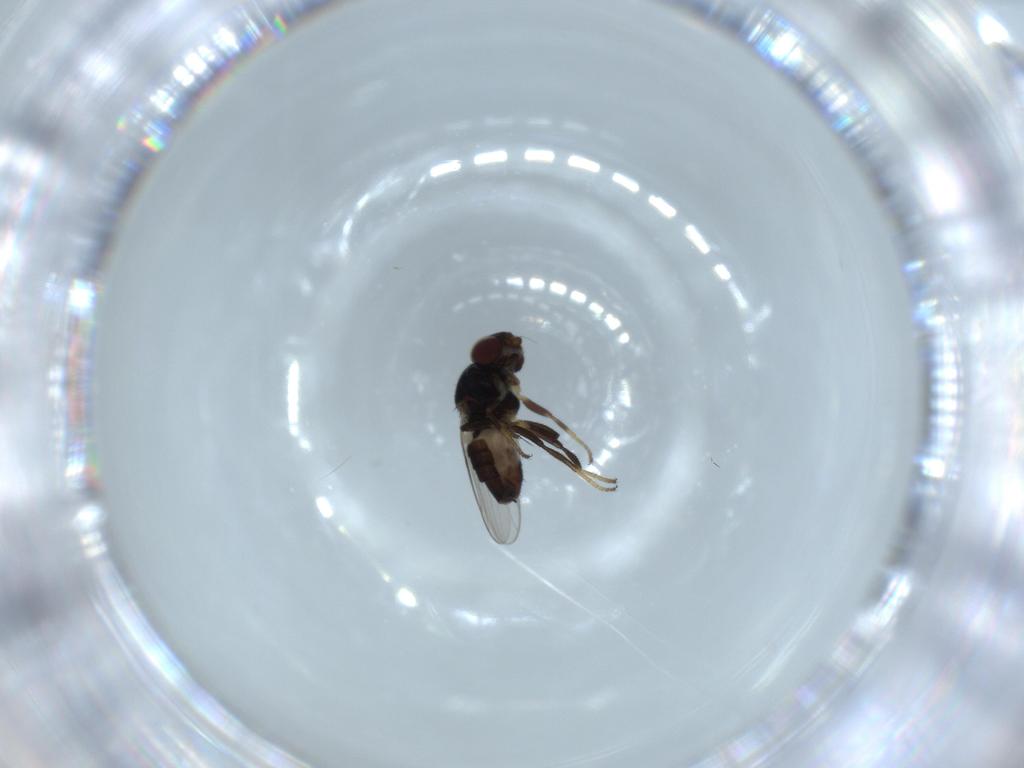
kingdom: Animalia
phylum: Arthropoda
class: Insecta
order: Diptera
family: Chloropidae
